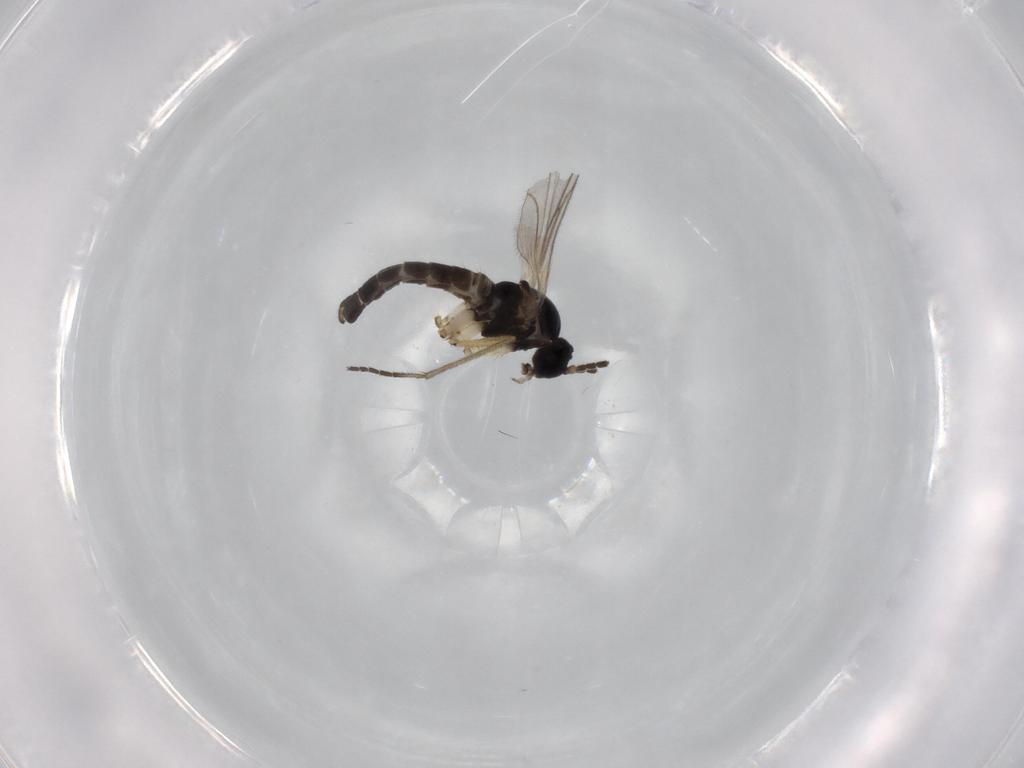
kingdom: Animalia
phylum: Arthropoda
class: Insecta
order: Diptera
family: Sciaridae
